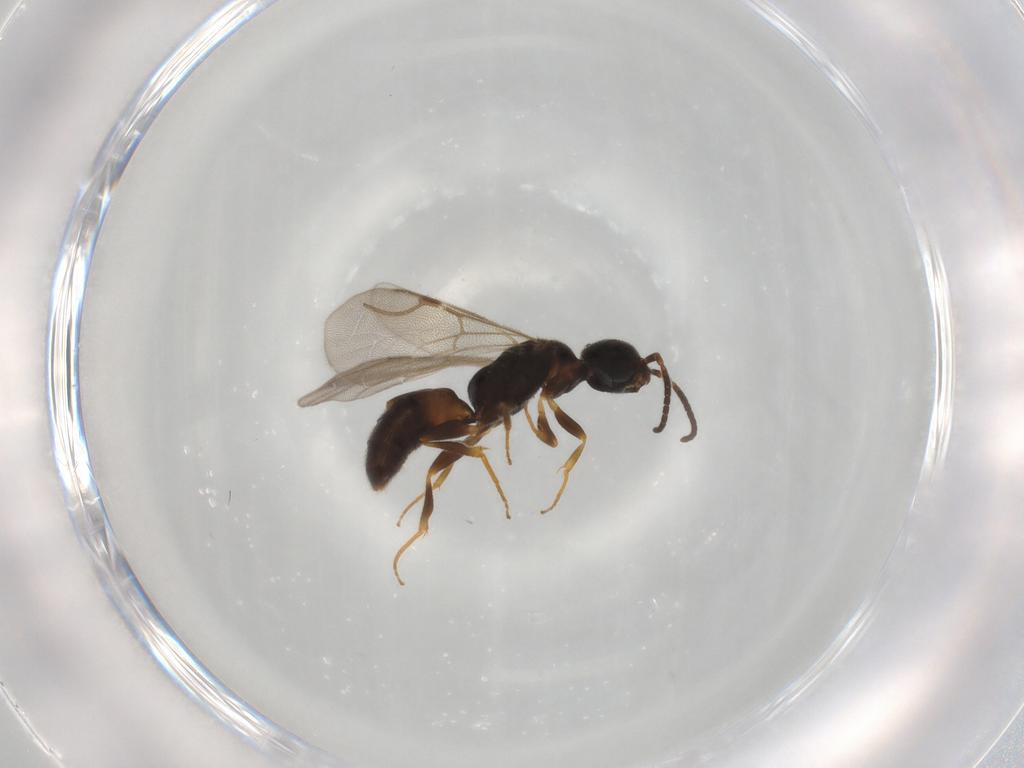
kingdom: Animalia
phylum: Arthropoda
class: Insecta
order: Hymenoptera
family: Bethylidae
